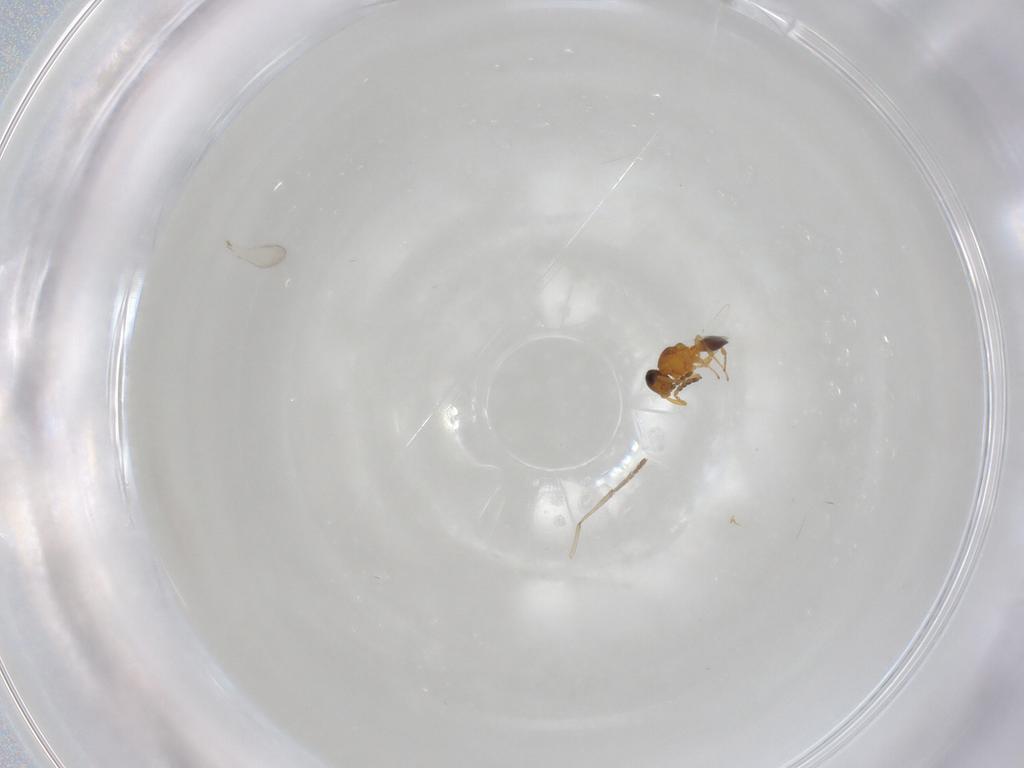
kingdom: Animalia
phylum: Arthropoda
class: Insecta
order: Hymenoptera
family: Platygastridae
